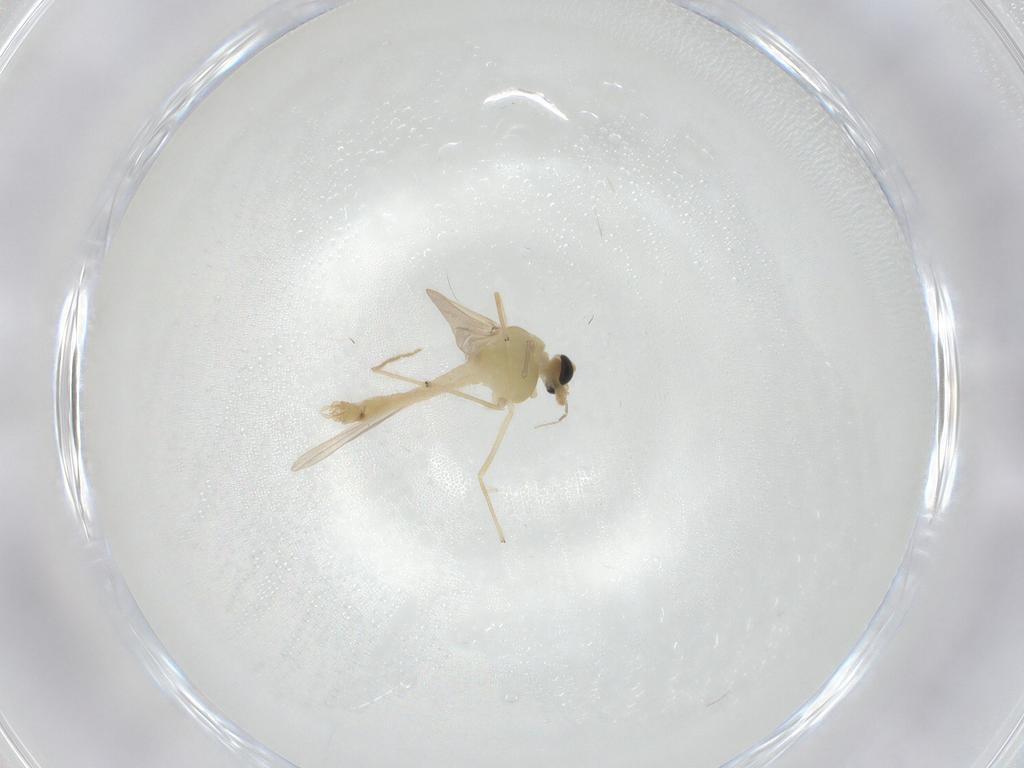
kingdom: Animalia
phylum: Arthropoda
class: Insecta
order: Diptera
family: Chironomidae
